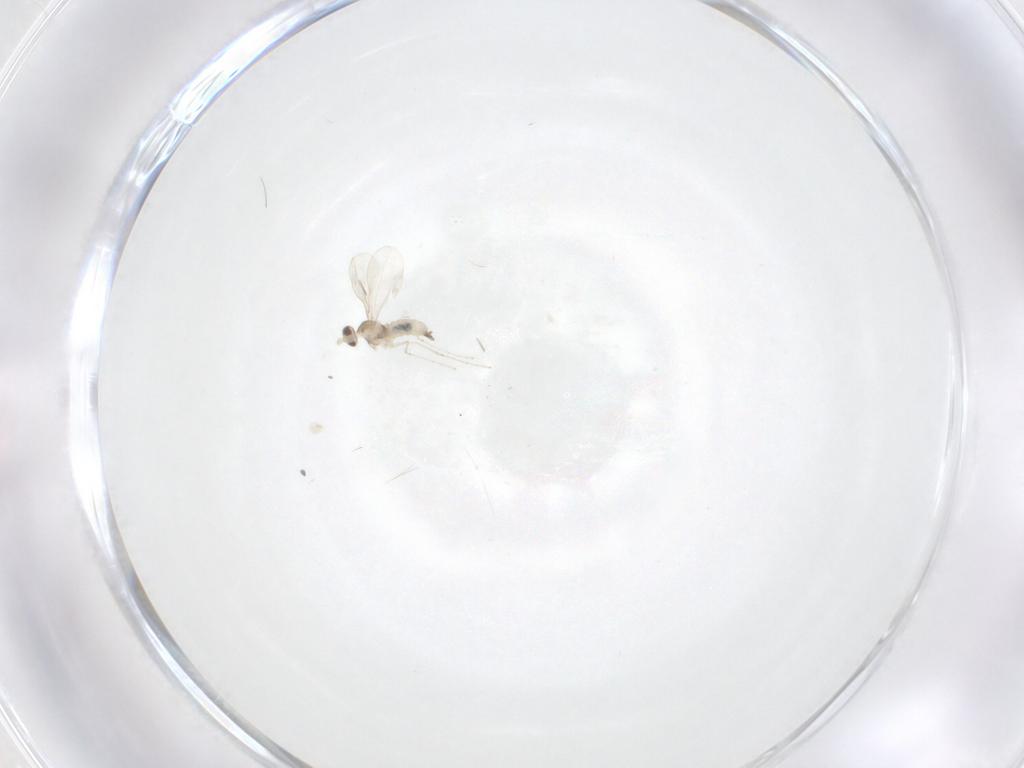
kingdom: Animalia
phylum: Arthropoda
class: Insecta
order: Diptera
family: Cecidomyiidae
